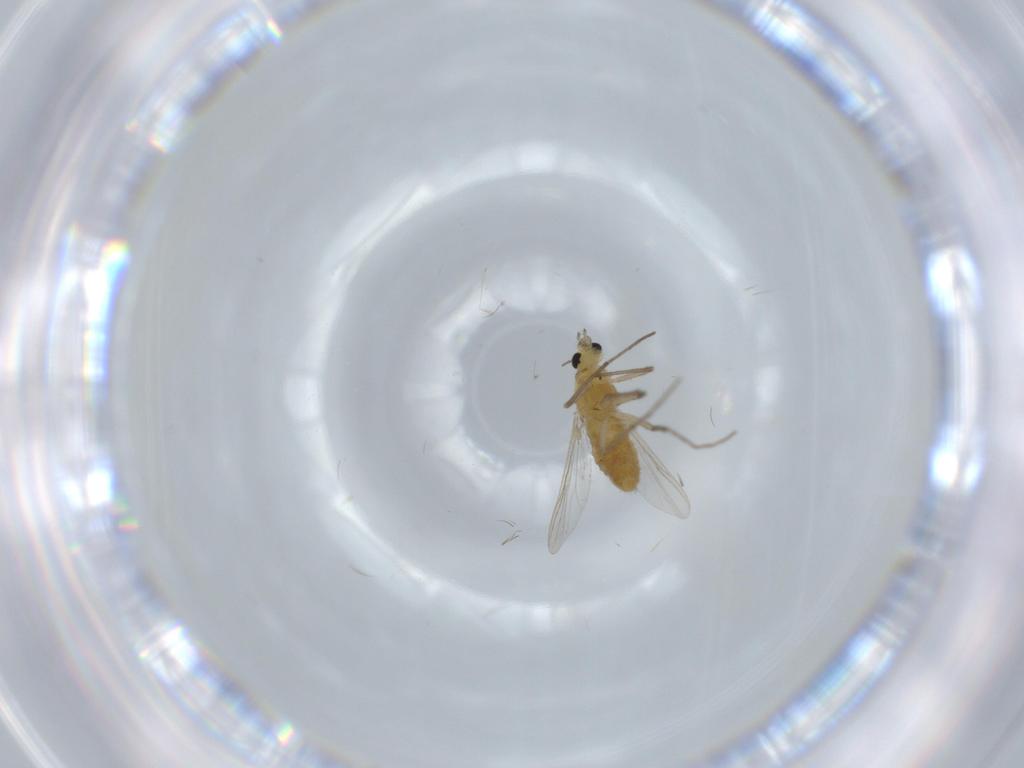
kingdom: Animalia
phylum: Arthropoda
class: Insecta
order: Diptera
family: Chironomidae
